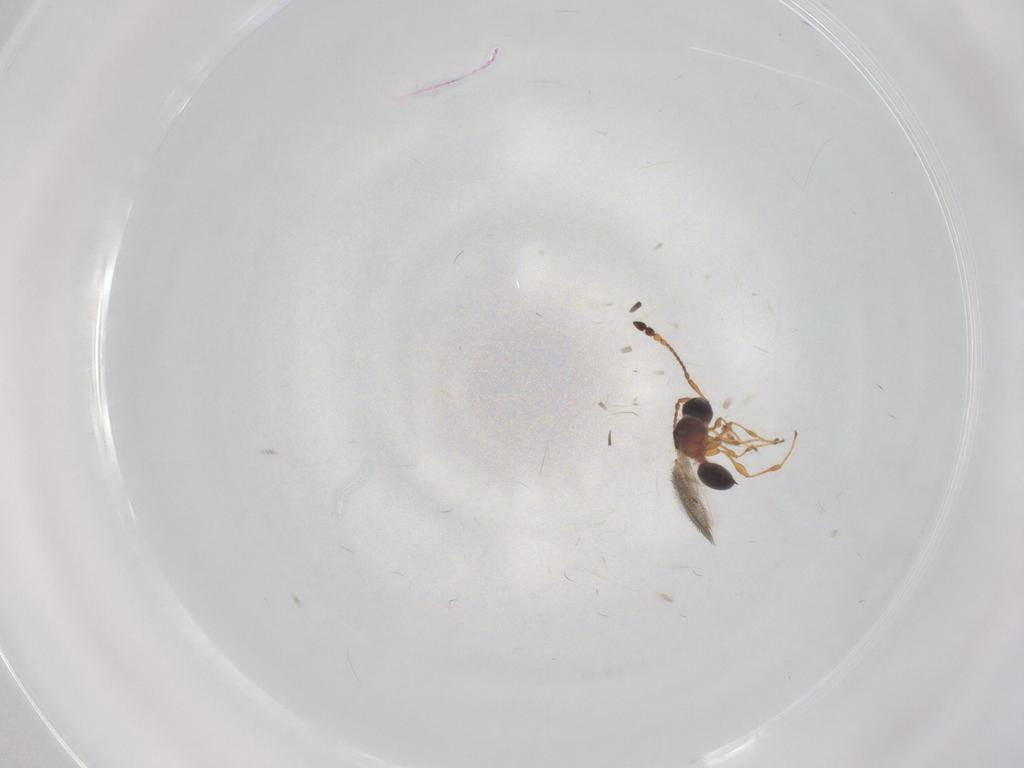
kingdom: Animalia
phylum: Arthropoda
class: Insecta
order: Hymenoptera
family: Diapriidae
